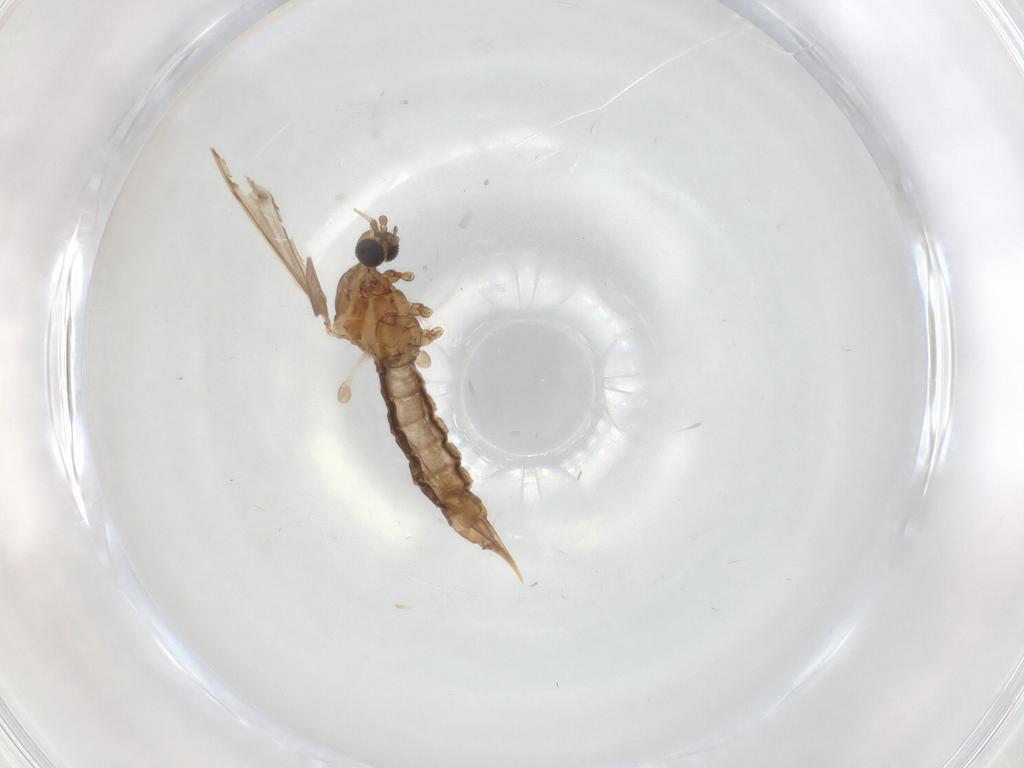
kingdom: Animalia
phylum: Arthropoda
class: Insecta
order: Diptera
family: Limoniidae
